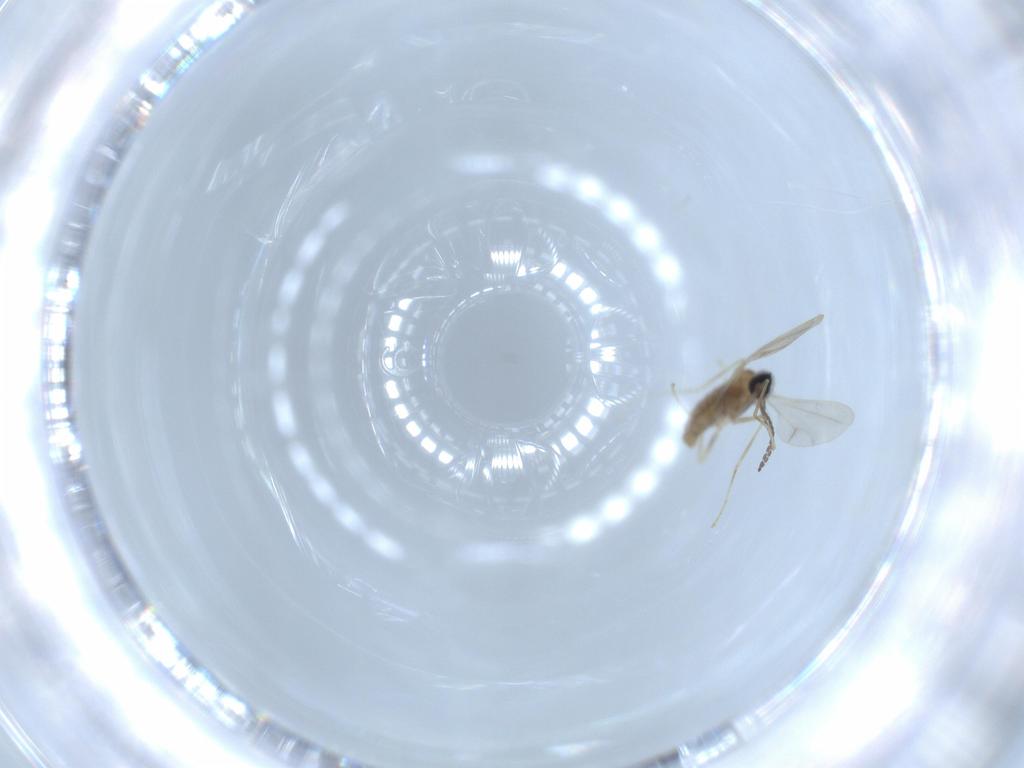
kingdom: Animalia
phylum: Arthropoda
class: Insecta
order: Diptera
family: Cecidomyiidae
